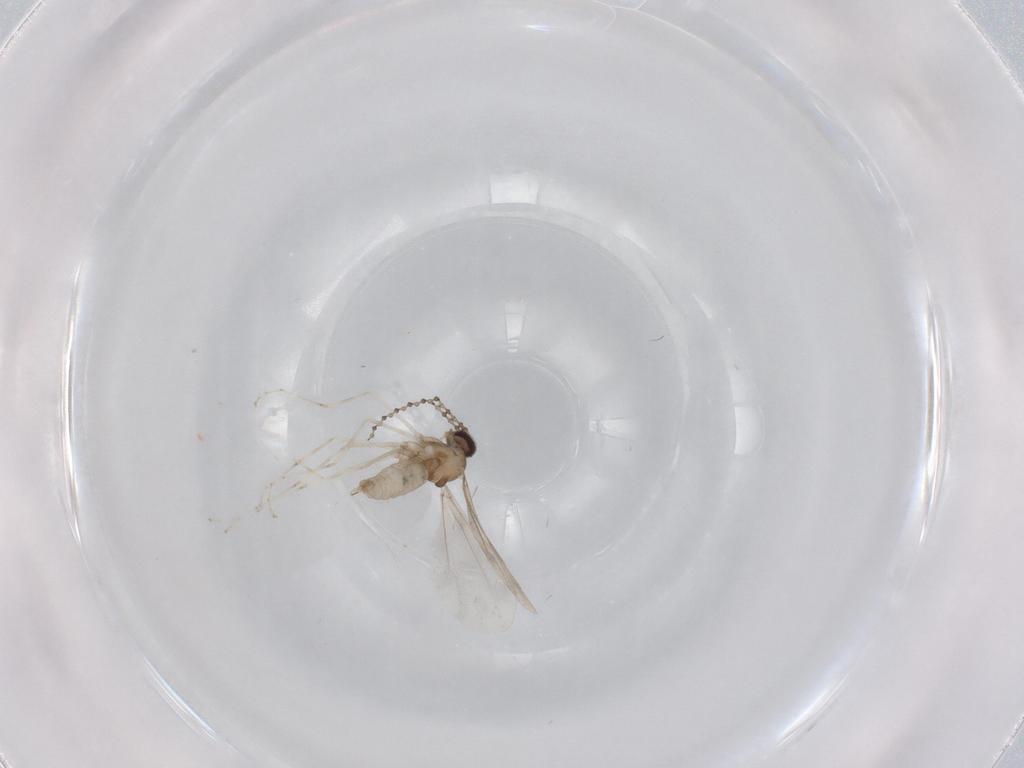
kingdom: Animalia
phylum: Arthropoda
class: Insecta
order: Diptera
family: Cecidomyiidae
